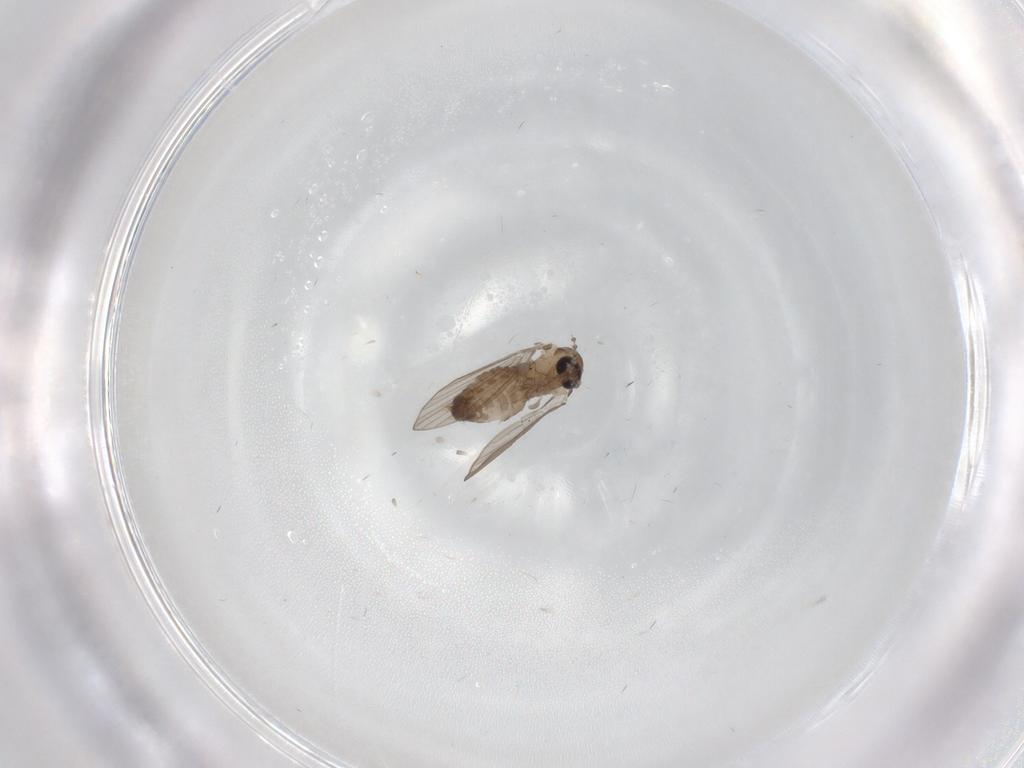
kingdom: Animalia
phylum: Arthropoda
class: Insecta
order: Diptera
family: Psychodidae
